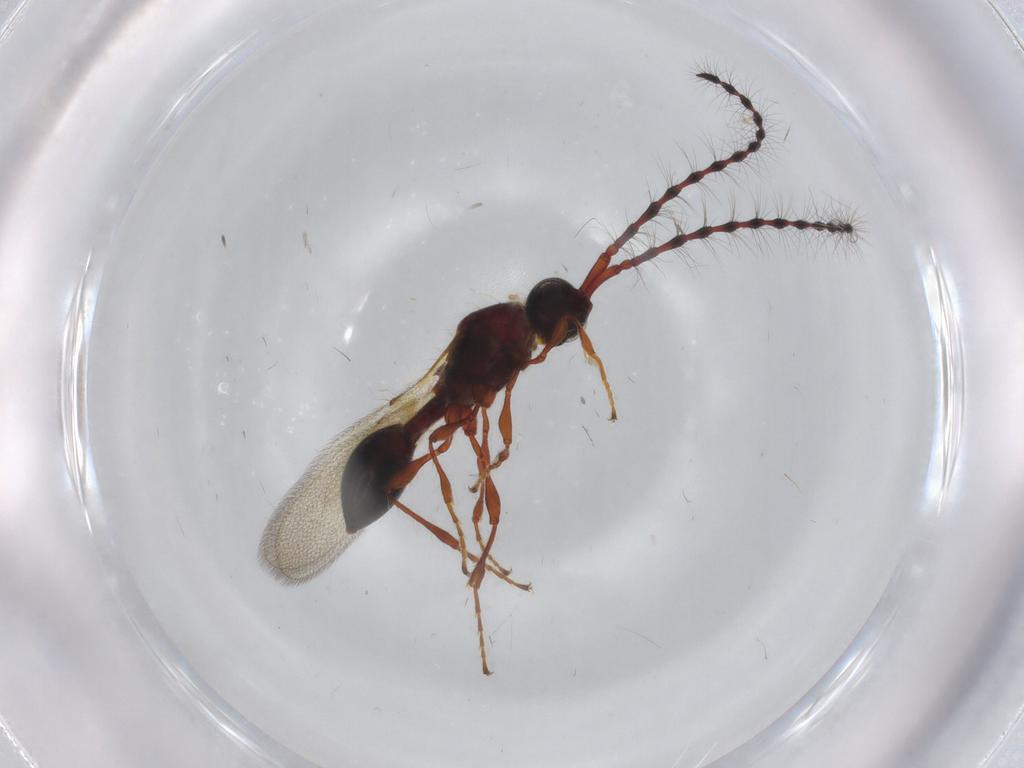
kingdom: Animalia
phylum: Arthropoda
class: Insecta
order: Hymenoptera
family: Diapriidae
